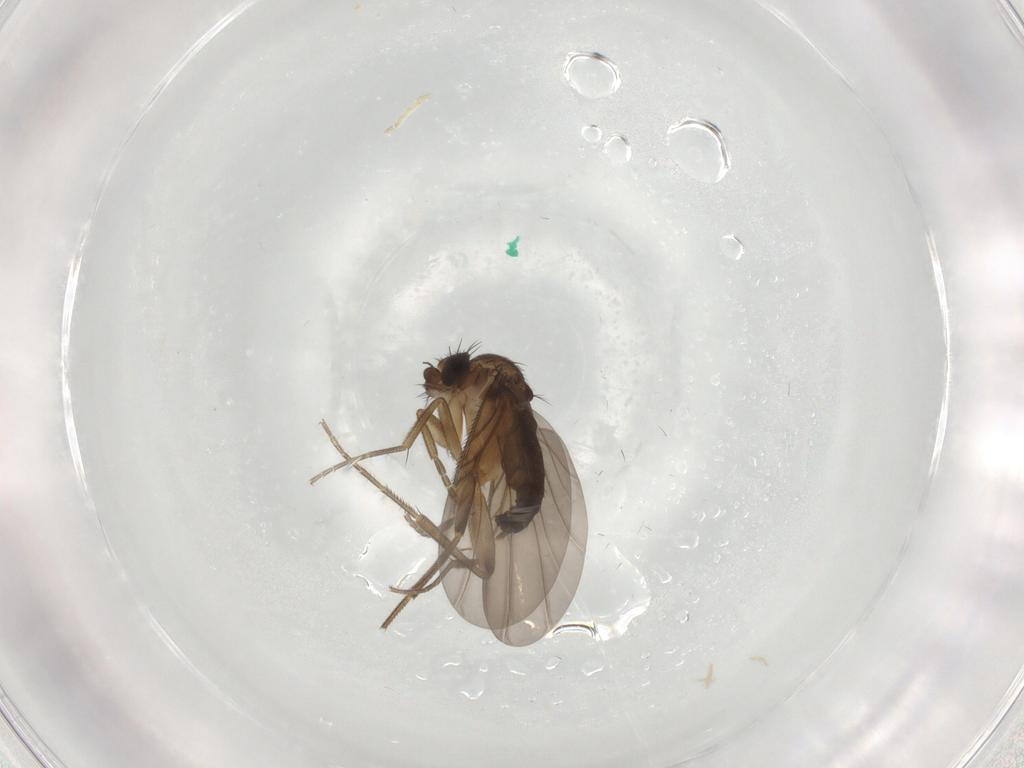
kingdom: Animalia
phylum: Arthropoda
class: Insecta
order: Diptera
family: Phoridae
